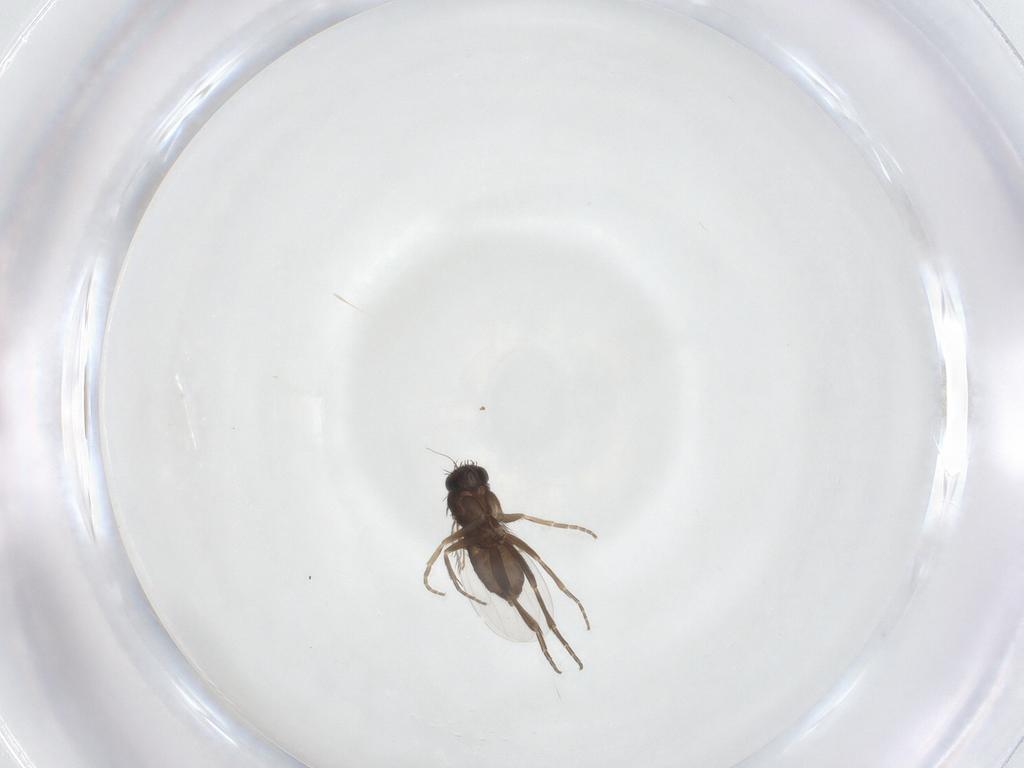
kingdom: Animalia
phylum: Arthropoda
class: Insecta
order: Diptera
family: Phoridae
